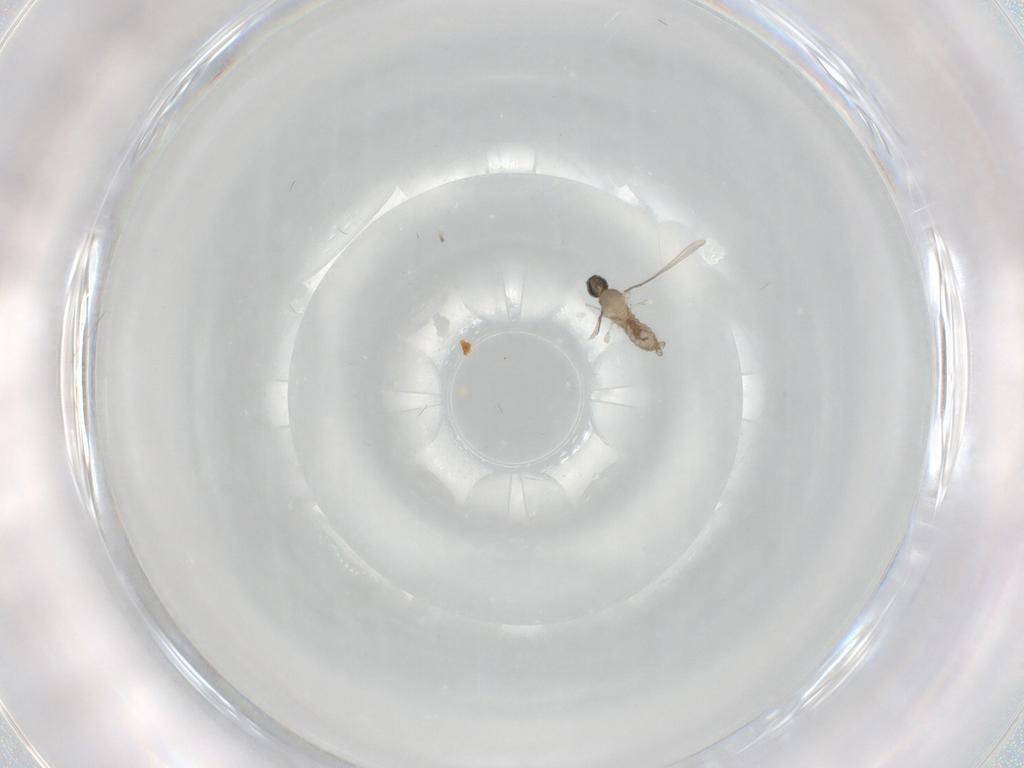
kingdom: Animalia
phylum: Arthropoda
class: Insecta
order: Diptera
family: Cecidomyiidae
